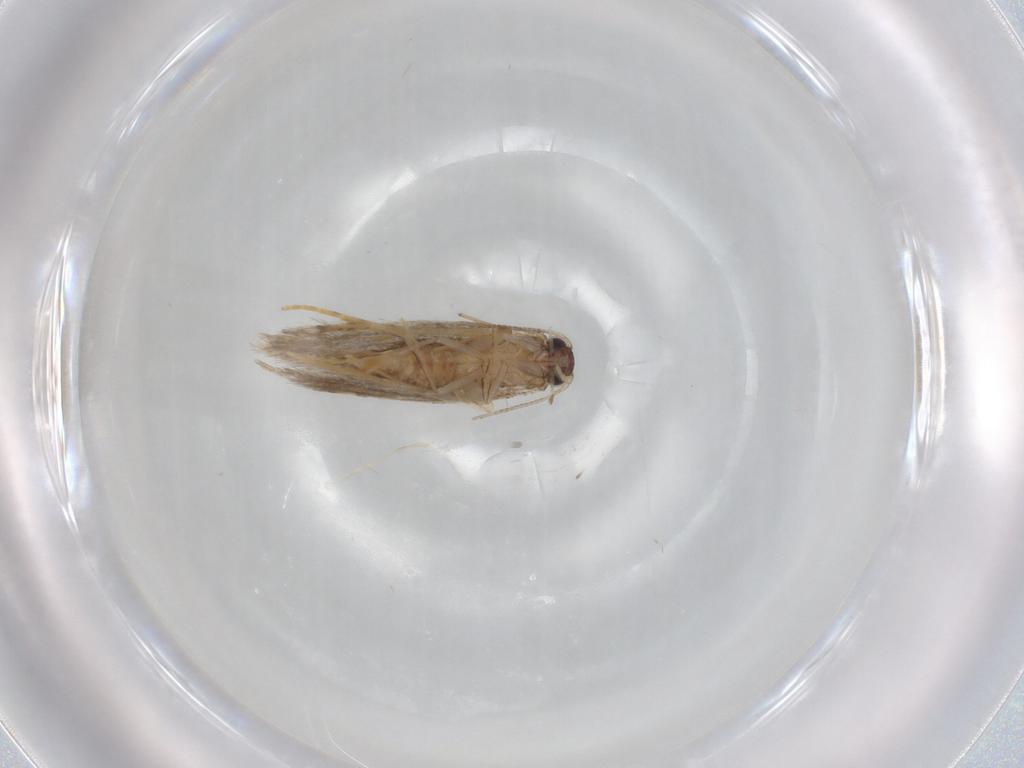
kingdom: Animalia
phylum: Arthropoda
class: Insecta
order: Lepidoptera
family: Tineidae
